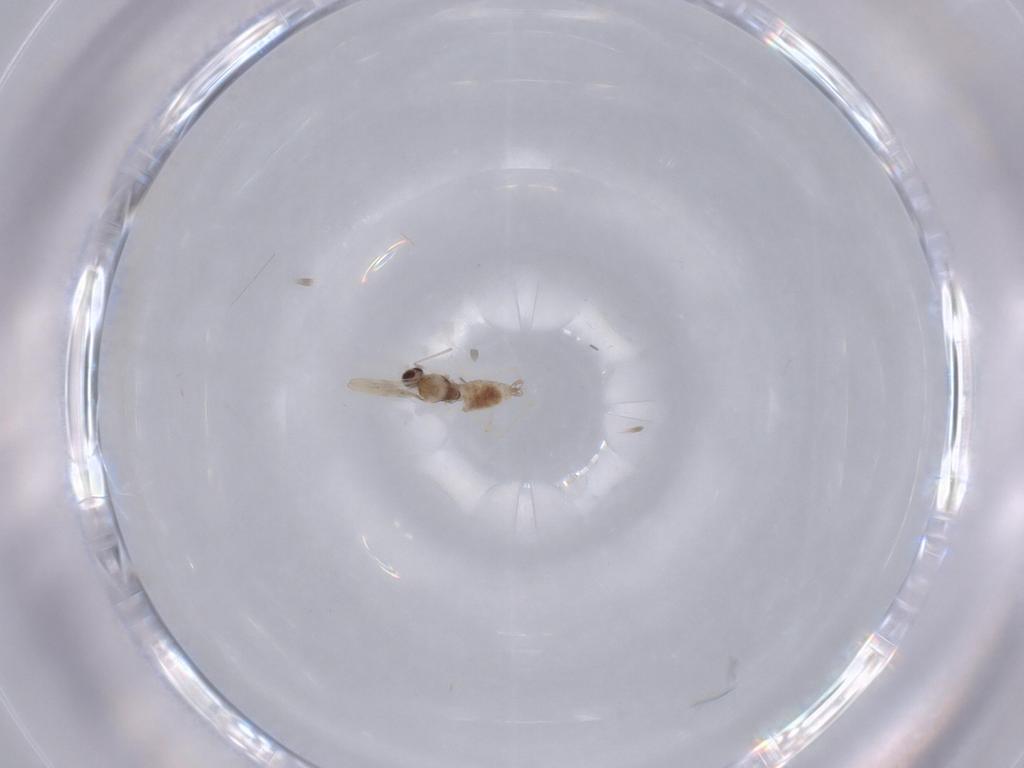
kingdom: Animalia
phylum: Arthropoda
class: Insecta
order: Diptera
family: Cecidomyiidae
